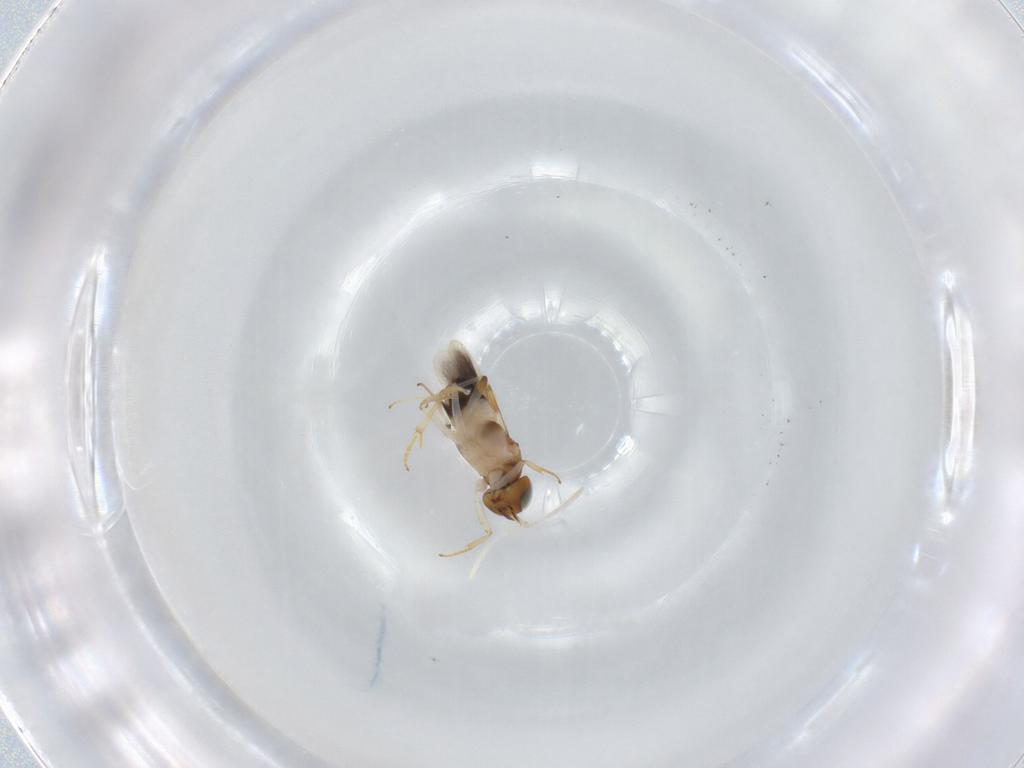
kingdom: Animalia
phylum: Arthropoda
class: Insecta
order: Hymenoptera
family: Encyrtidae
